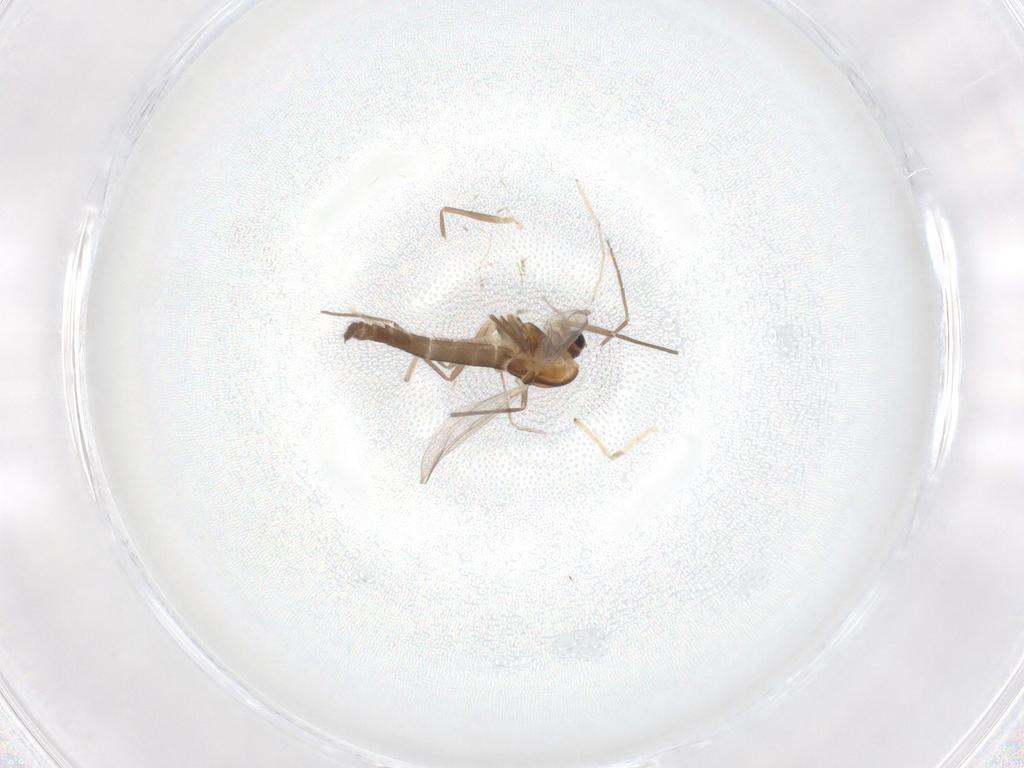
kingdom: Animalia
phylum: Arthropoda
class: Insecta
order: Diptera
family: Chironomidae
